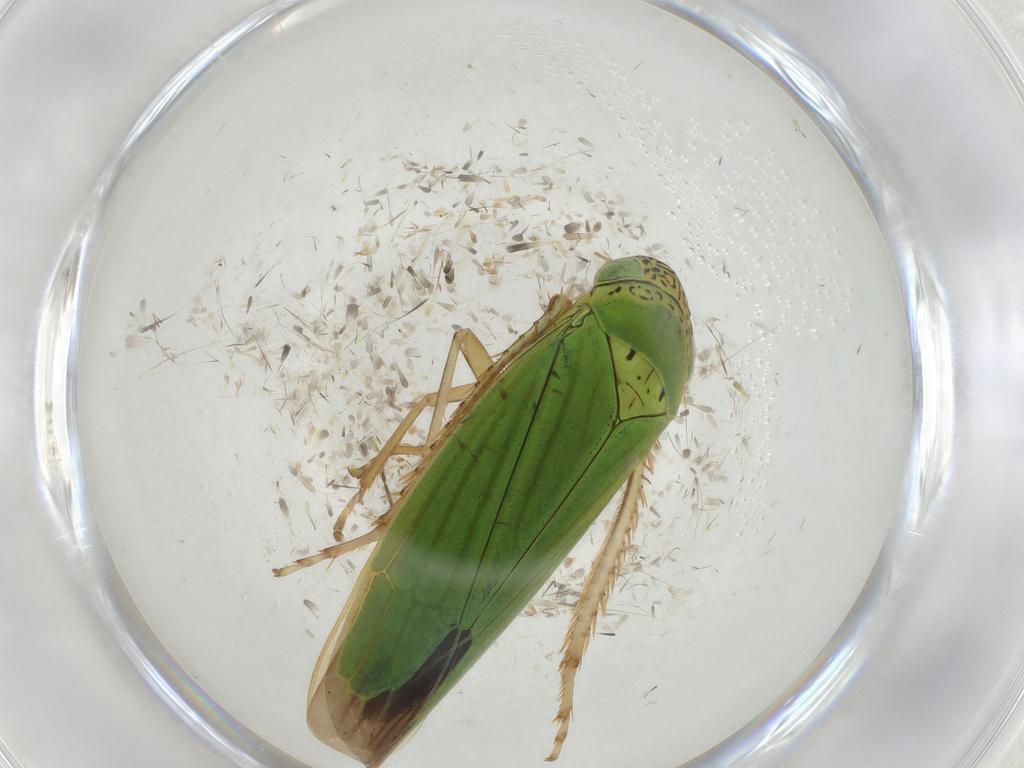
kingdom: Animalia
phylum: Arthropoda
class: Insecta
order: Hemiptera
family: Cicadellidae
